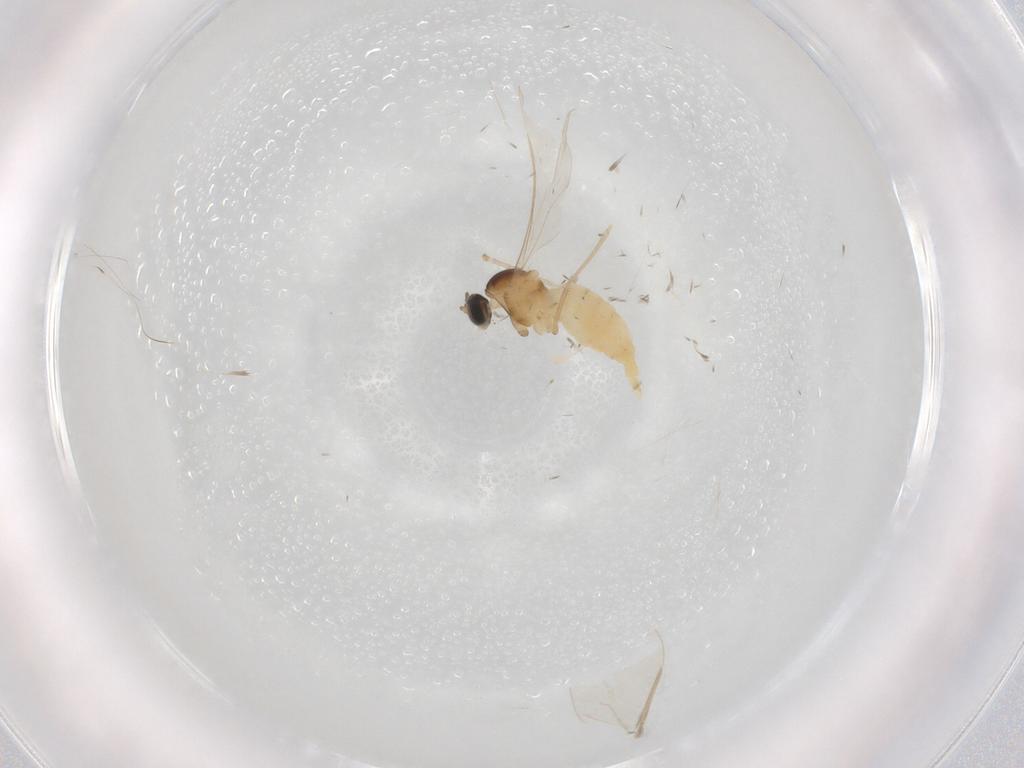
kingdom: Animalia
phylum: Arthropoda
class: Insecta
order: Diptera
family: Cecidomyiidae
